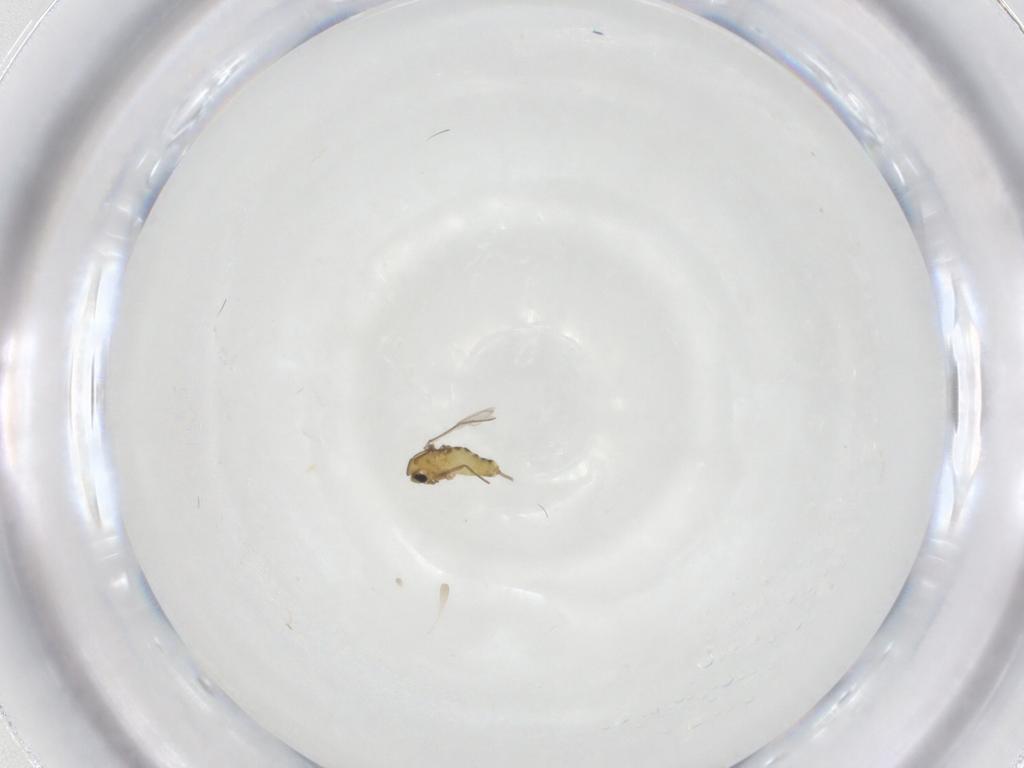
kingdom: Animalia
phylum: Arthropoda
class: Insecta
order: Diptera
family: Chironomidae
